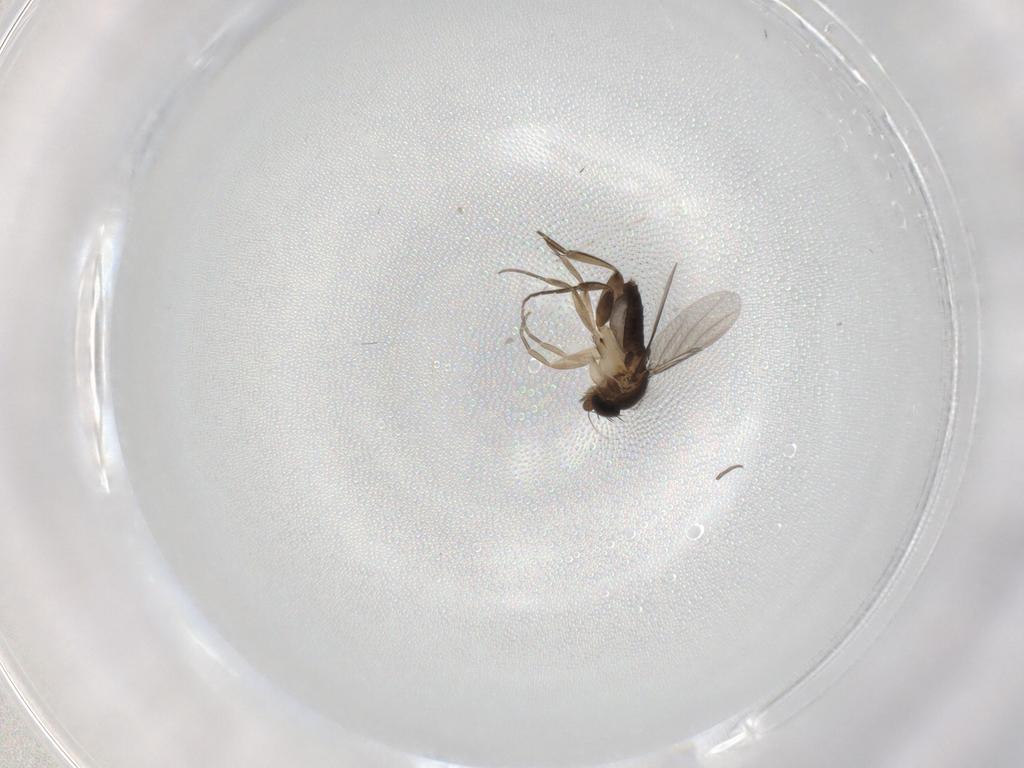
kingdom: Animalia
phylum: Arthropoda
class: Insecta
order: Diptera
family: Phoridae
